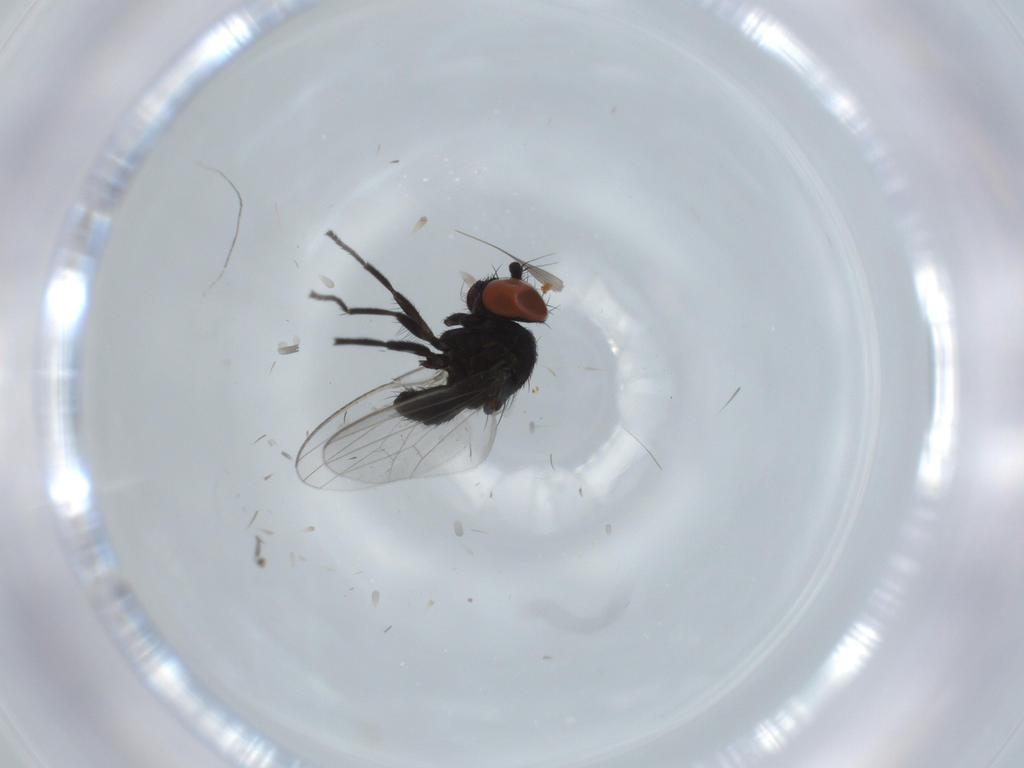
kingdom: Animalia
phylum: Arthropoda
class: Insecta
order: Diptera
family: Milichiidae
